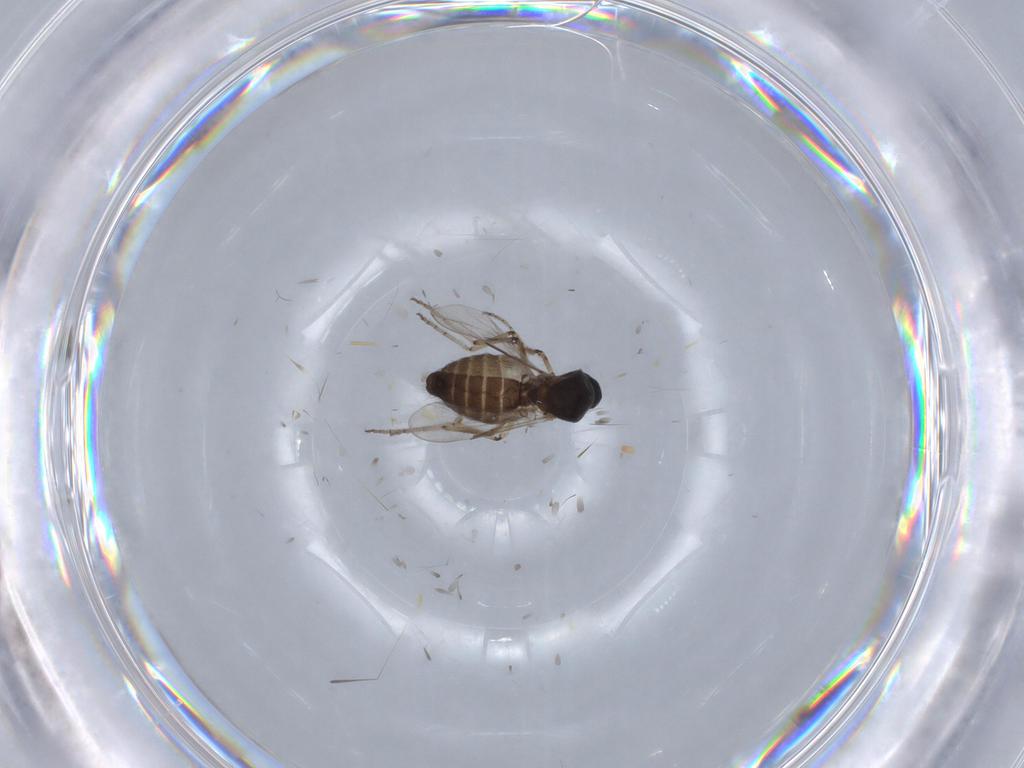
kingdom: Animalia
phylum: Arthropoda
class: Insecta
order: Diptera
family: Ceratopogonidae
